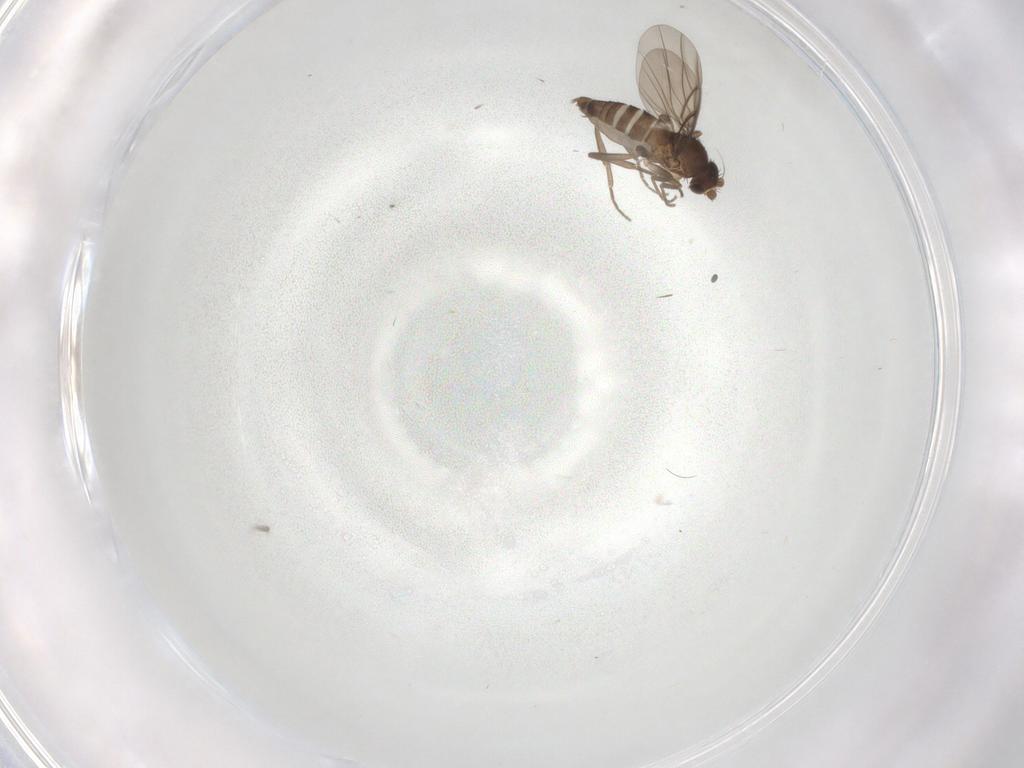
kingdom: Animalia
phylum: Arthropoda
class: Insecta
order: Diptera
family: Phoridae
